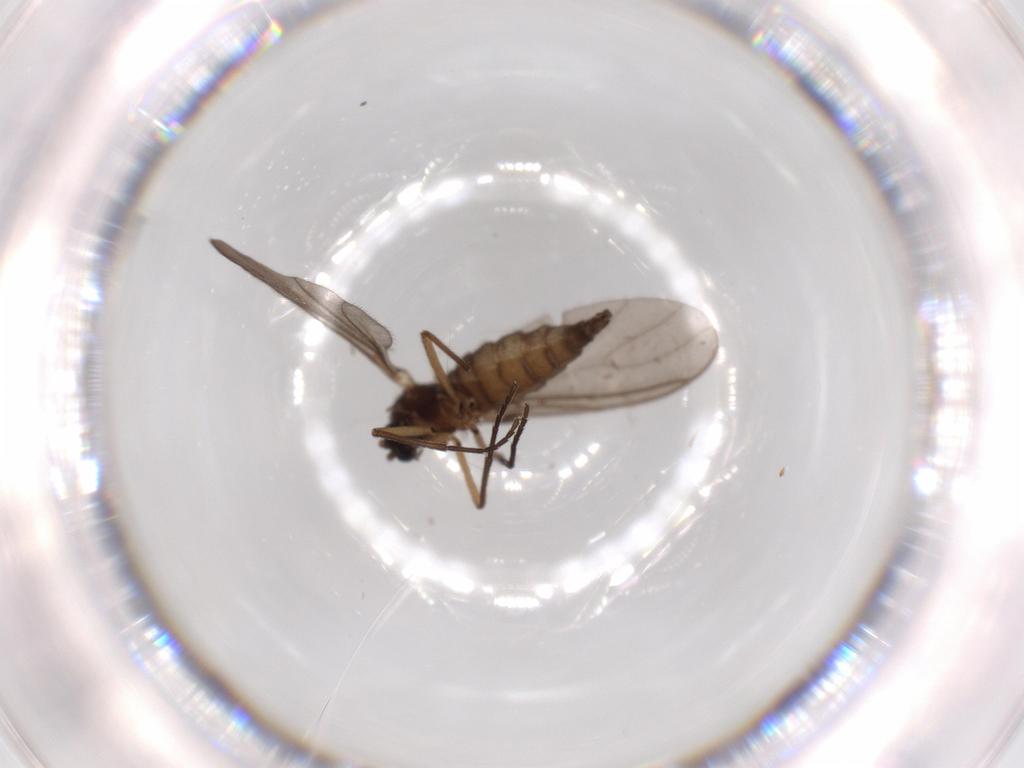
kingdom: Animalia
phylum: Arthropoda
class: Insecta
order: Diptera
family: Sciaridae
